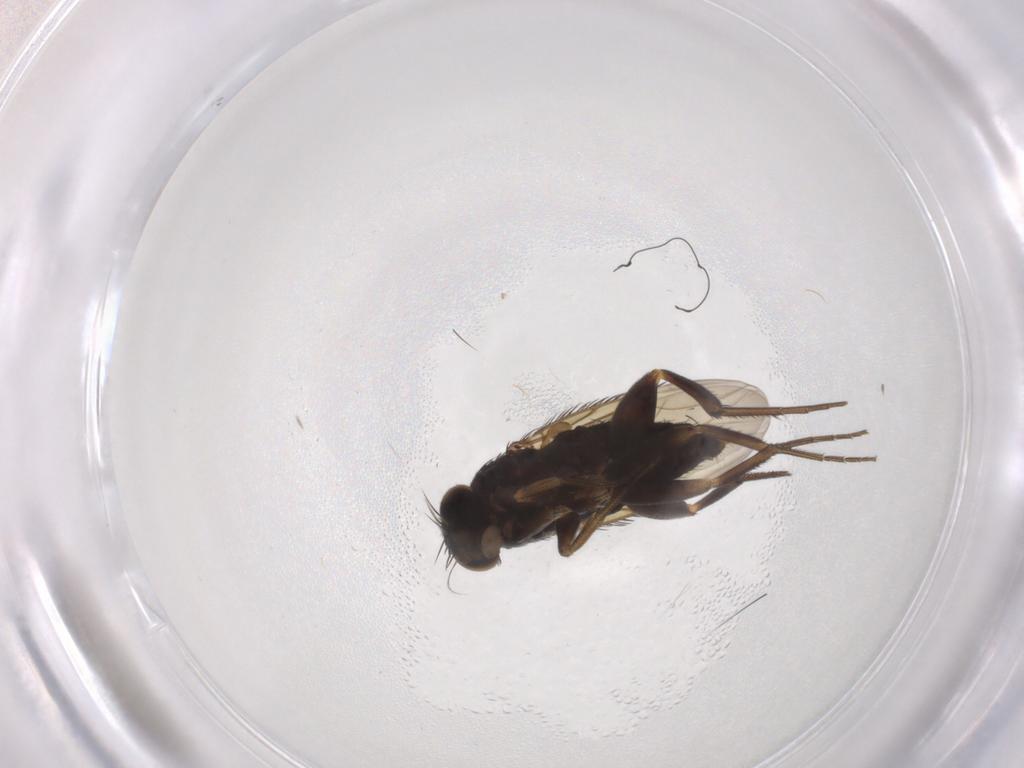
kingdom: Animalia
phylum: Arthropoda
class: Insecta
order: Diptera
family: Phoridae
